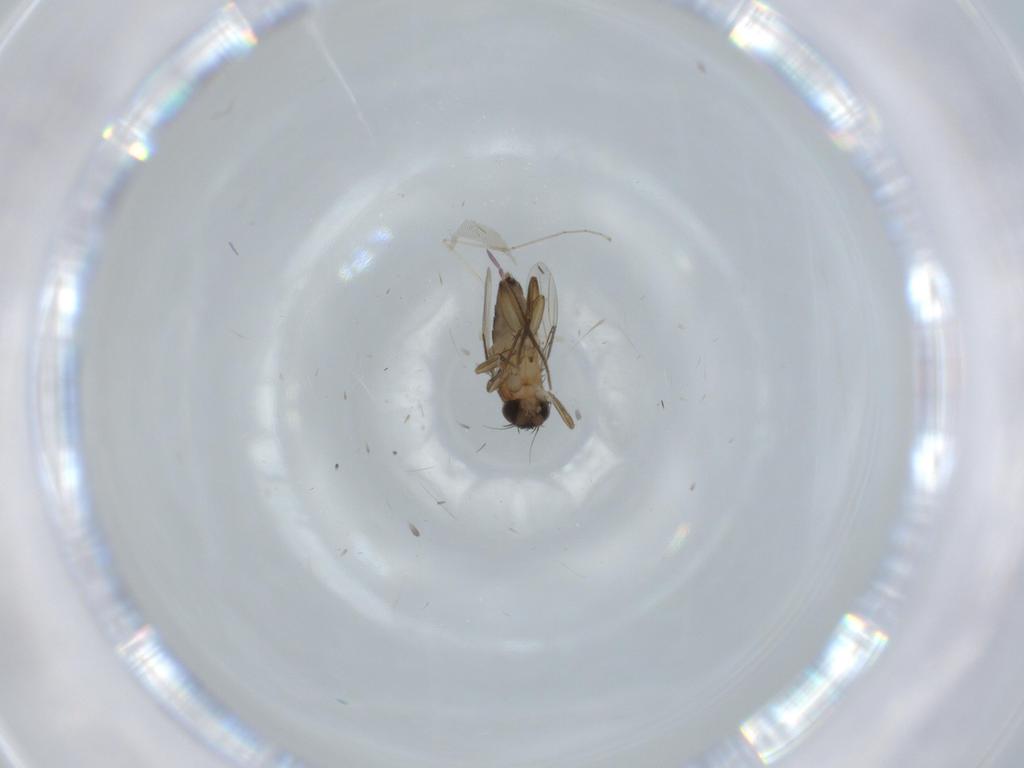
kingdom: Animalia
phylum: Arthropoda
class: Insecta
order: Diptera
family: Phoridae
